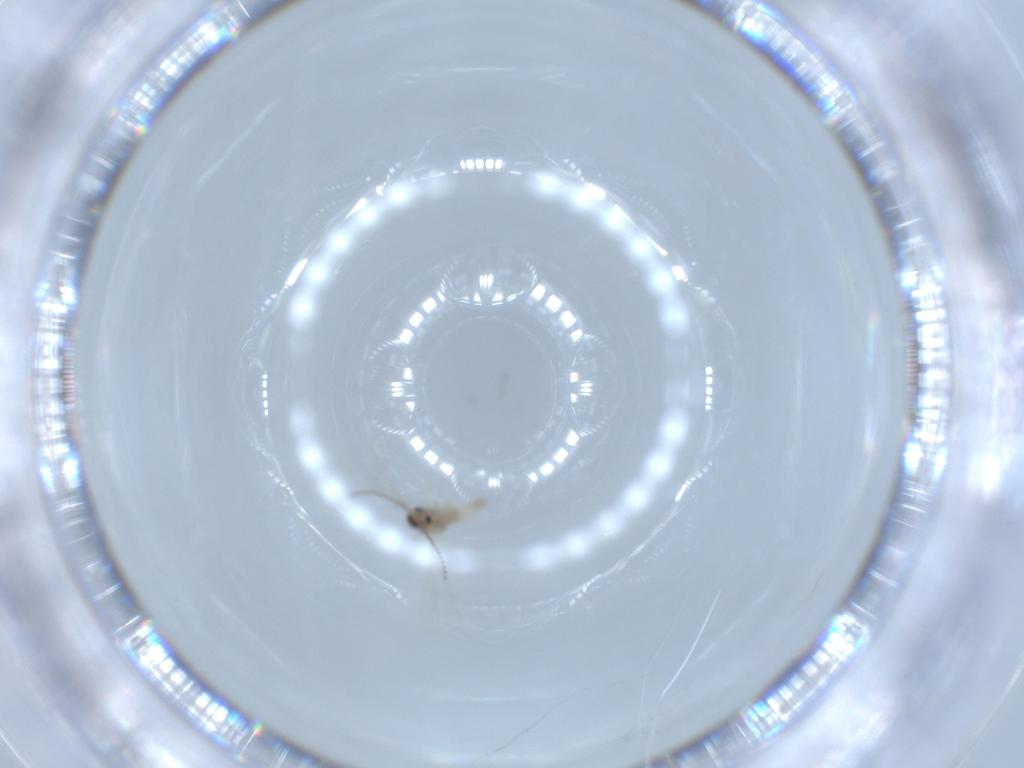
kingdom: Animalia
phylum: Arthropoda
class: Insecta
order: Diptera
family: Cecidomyiidae
